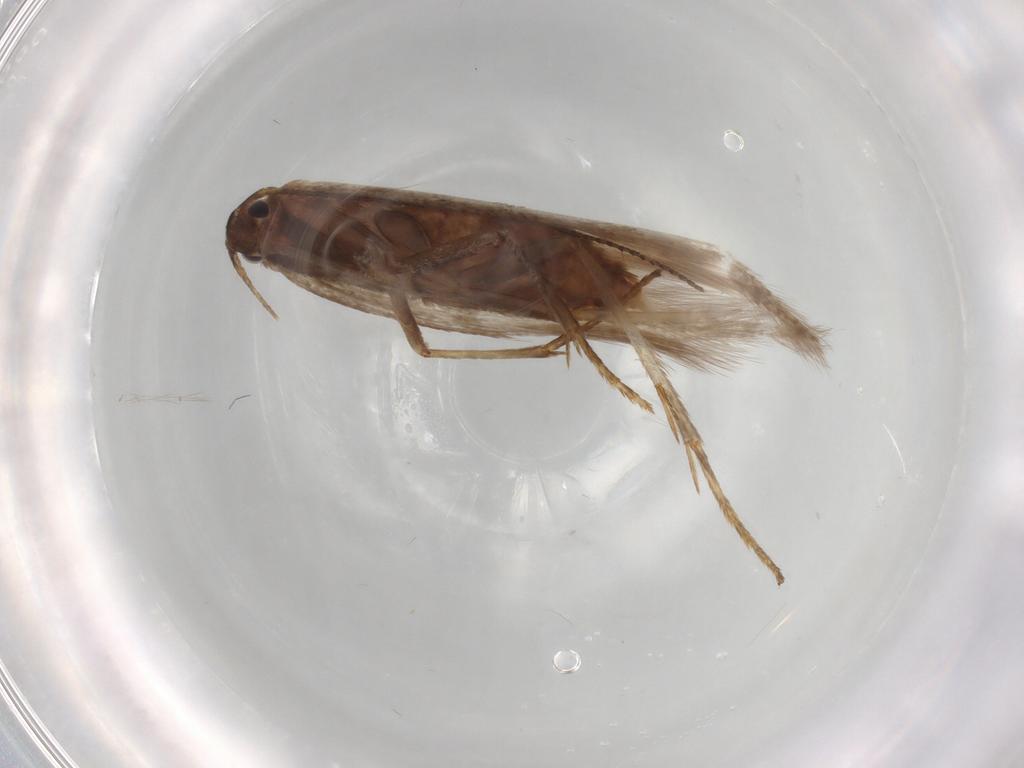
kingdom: Animalia
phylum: Arthropoda
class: Insecta
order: Lepidoptera
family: Erebidae
